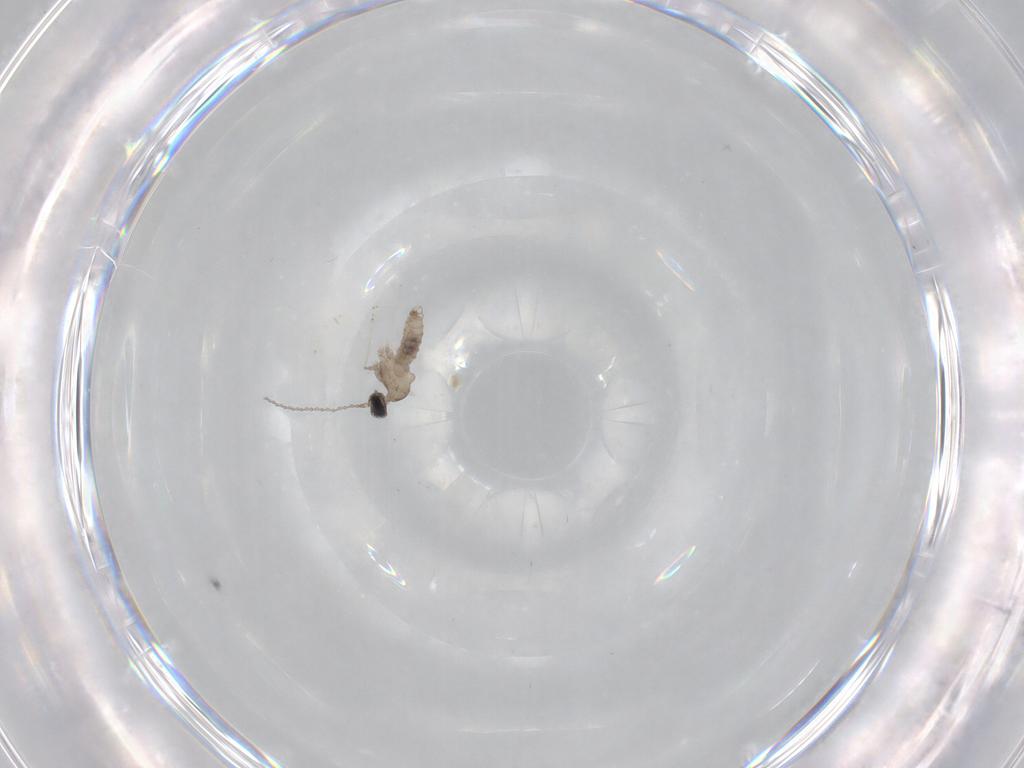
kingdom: Animalia
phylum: Arthropoda
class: Insecta
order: Diptera
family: Cecidomyiidae
